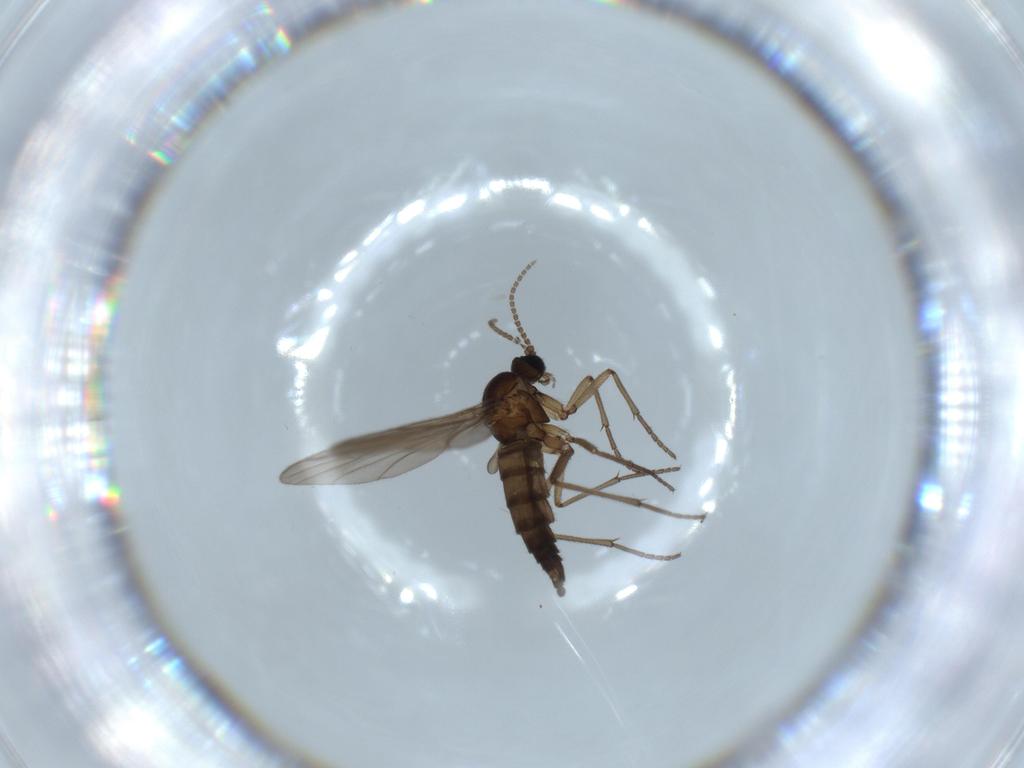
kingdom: Animalia
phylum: Arthropoda
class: Insecta
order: Diptera
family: Sciaridae
